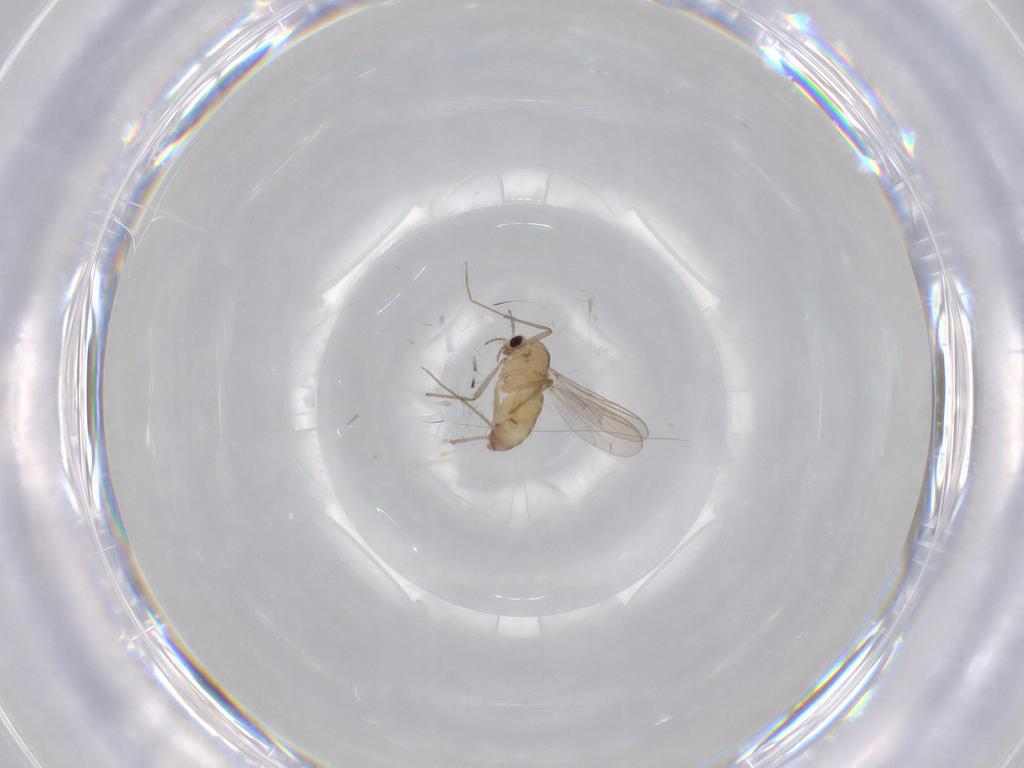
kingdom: Animalia
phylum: Arthropoda
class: Insecta
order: Diptera
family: Chironomidae
